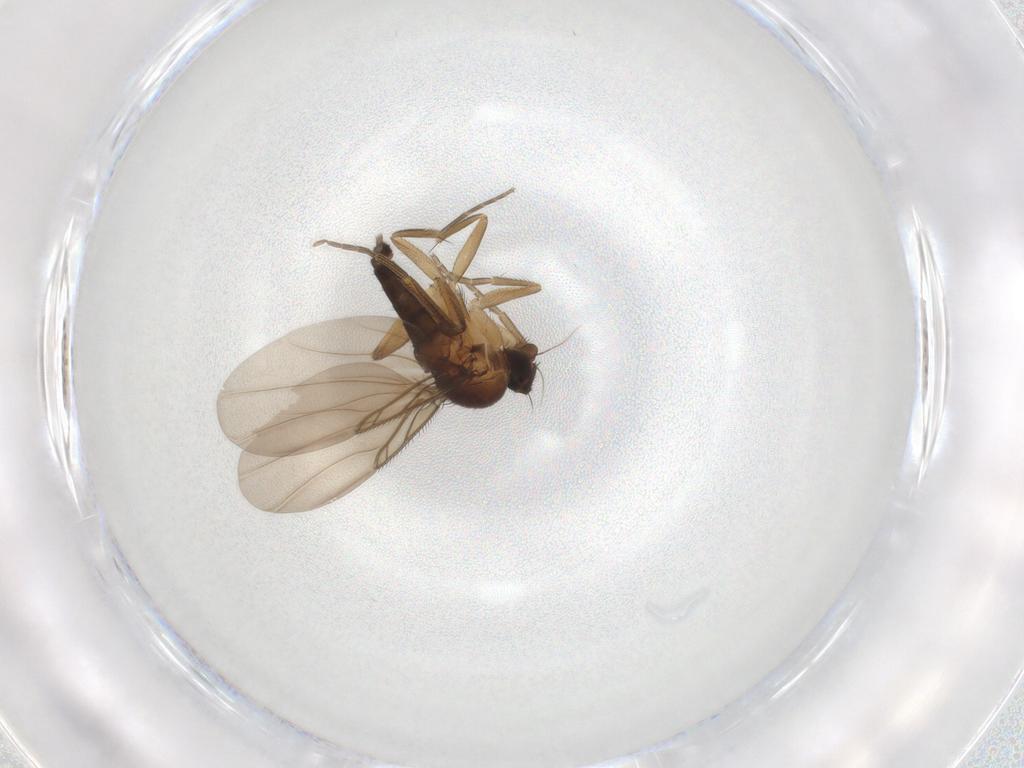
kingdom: Animalia
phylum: Arthropoda
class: Insecta
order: Diptera
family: Phoridae
